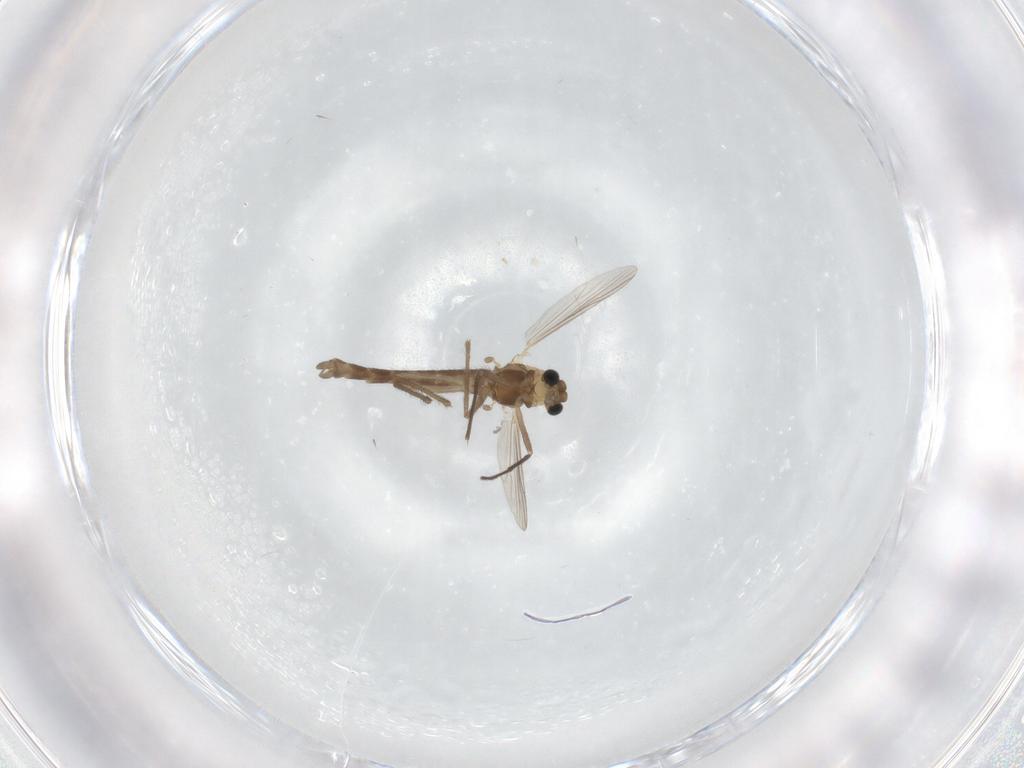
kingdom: Animalia
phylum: Arthropoda
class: Insecta
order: Diptera
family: Chironomidae
